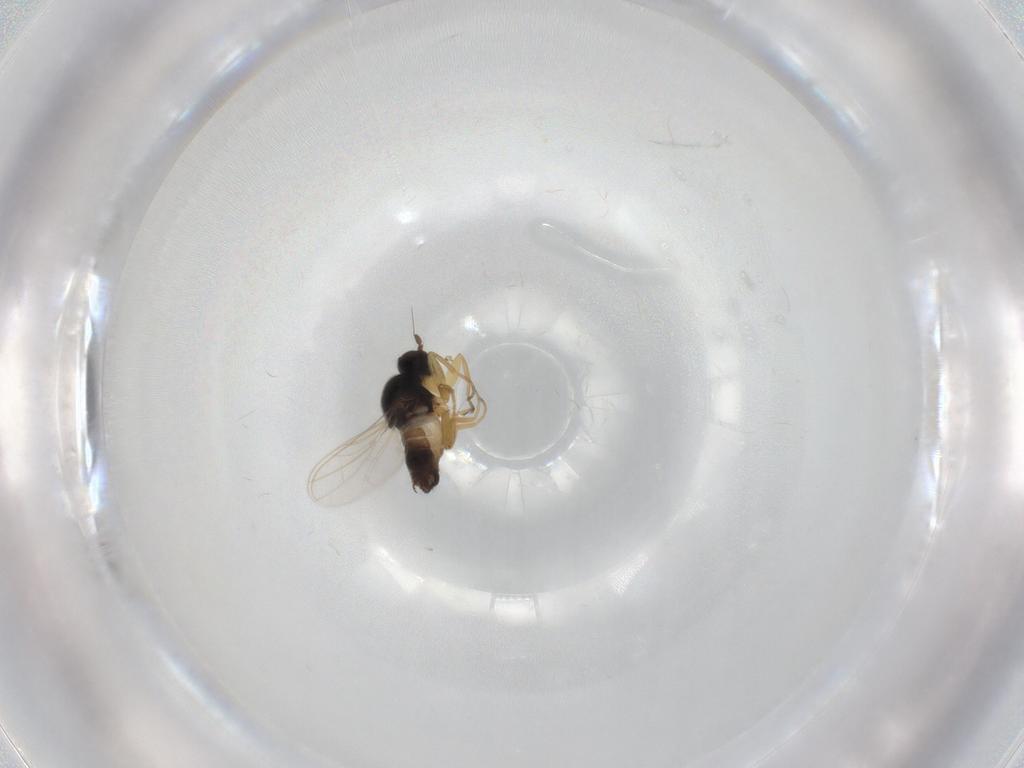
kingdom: Animalia
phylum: Arthropoda
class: Insecta
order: Diptera
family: Hybotidae
